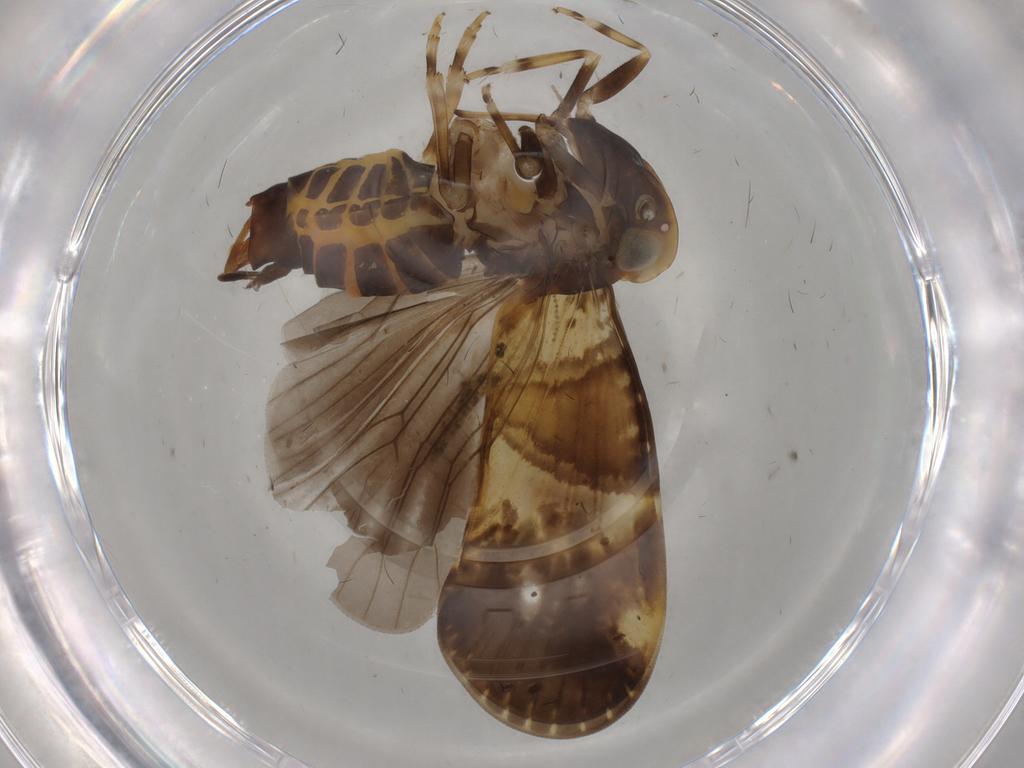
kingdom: Animalia
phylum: Arthropoda
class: Insecta
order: Hemiptera
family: Cixiidae
